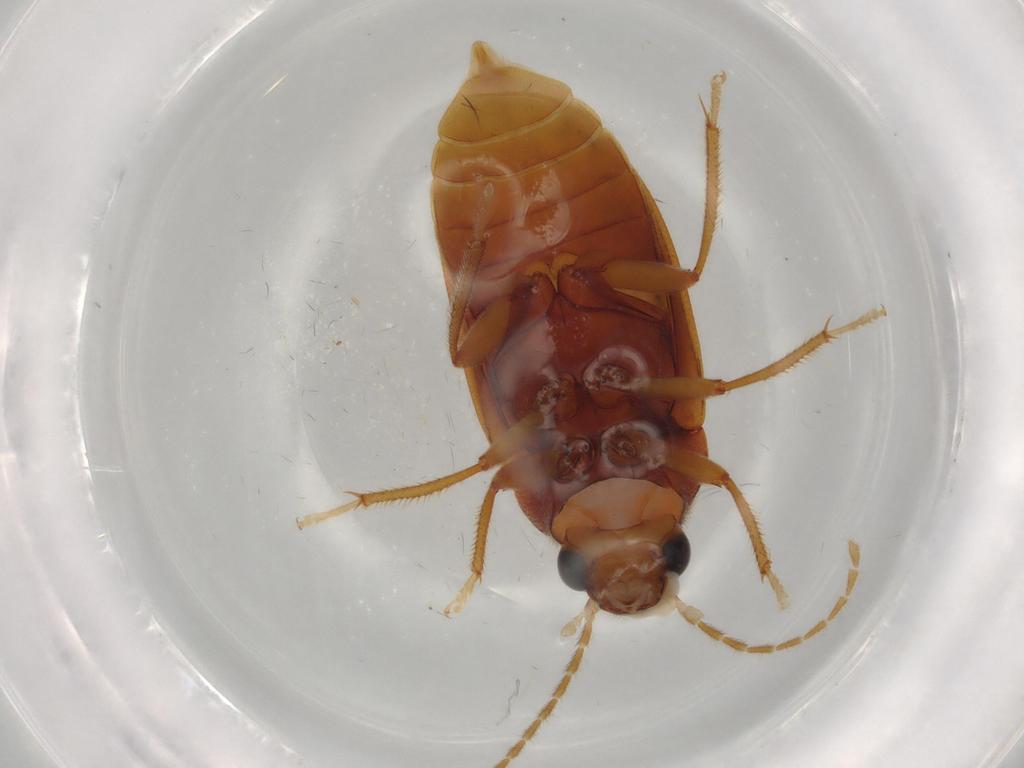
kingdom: Animalia
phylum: Arthropoda
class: Insecta
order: Coleoptera
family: Ptilodactylidae
